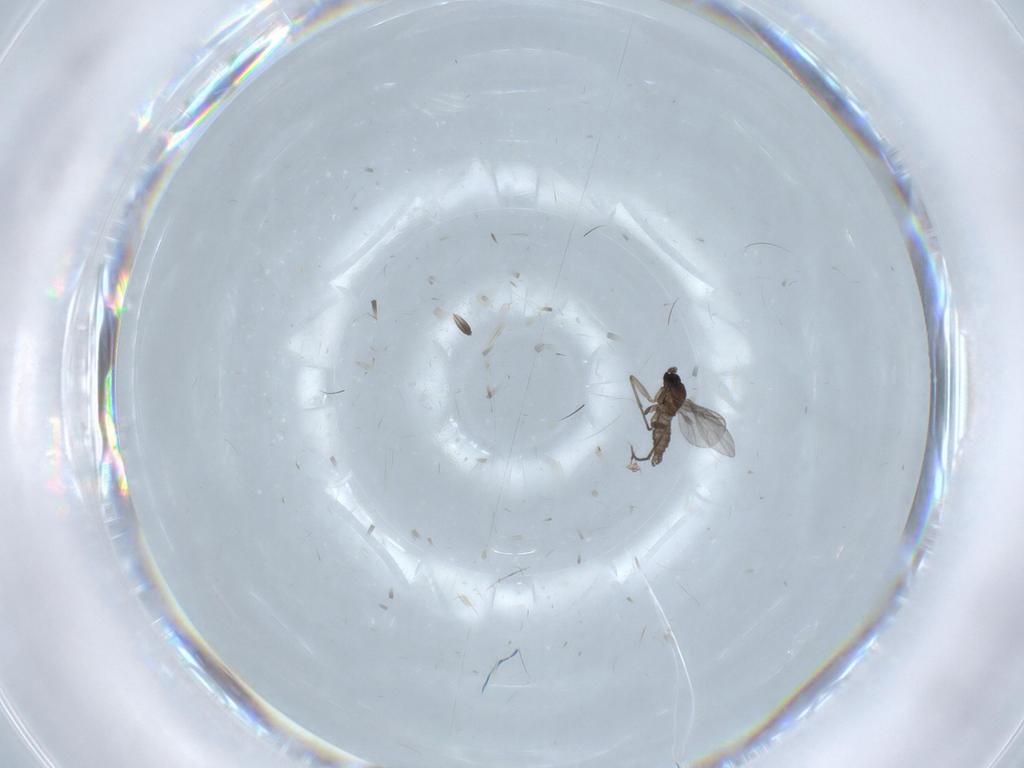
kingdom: Animalia
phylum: Arthropoda
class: Insecta
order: Diptera
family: Sciaridae
